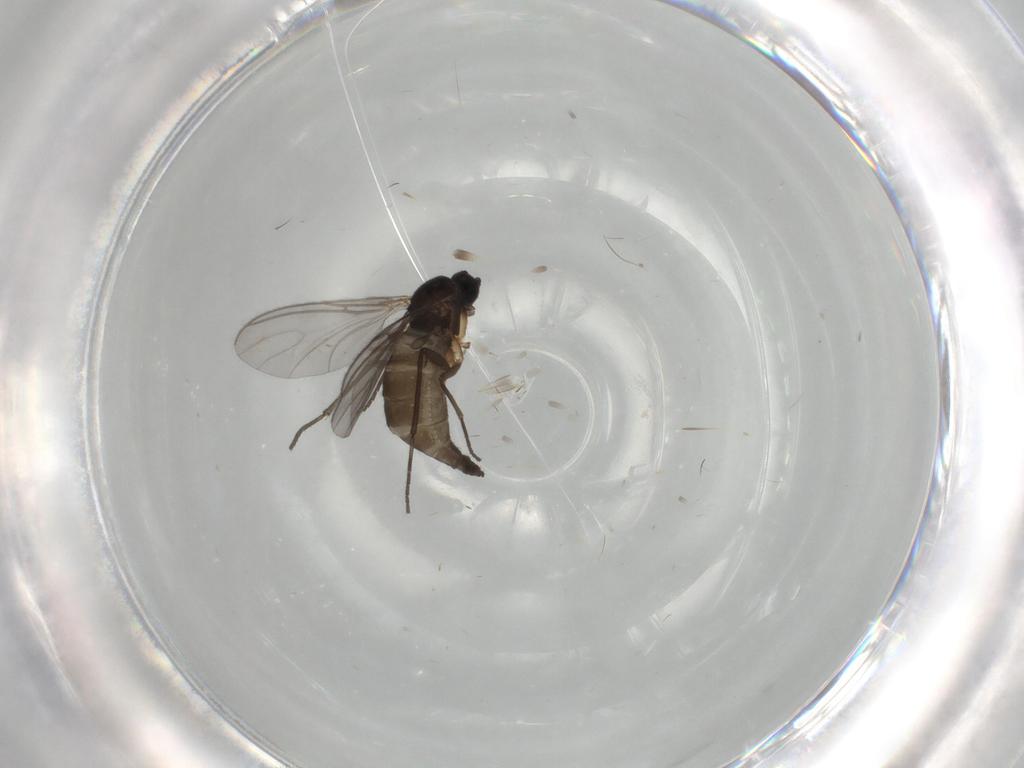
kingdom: Animalia
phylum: Arthropoda
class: Insecta
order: Diptera
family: Sciaridae
